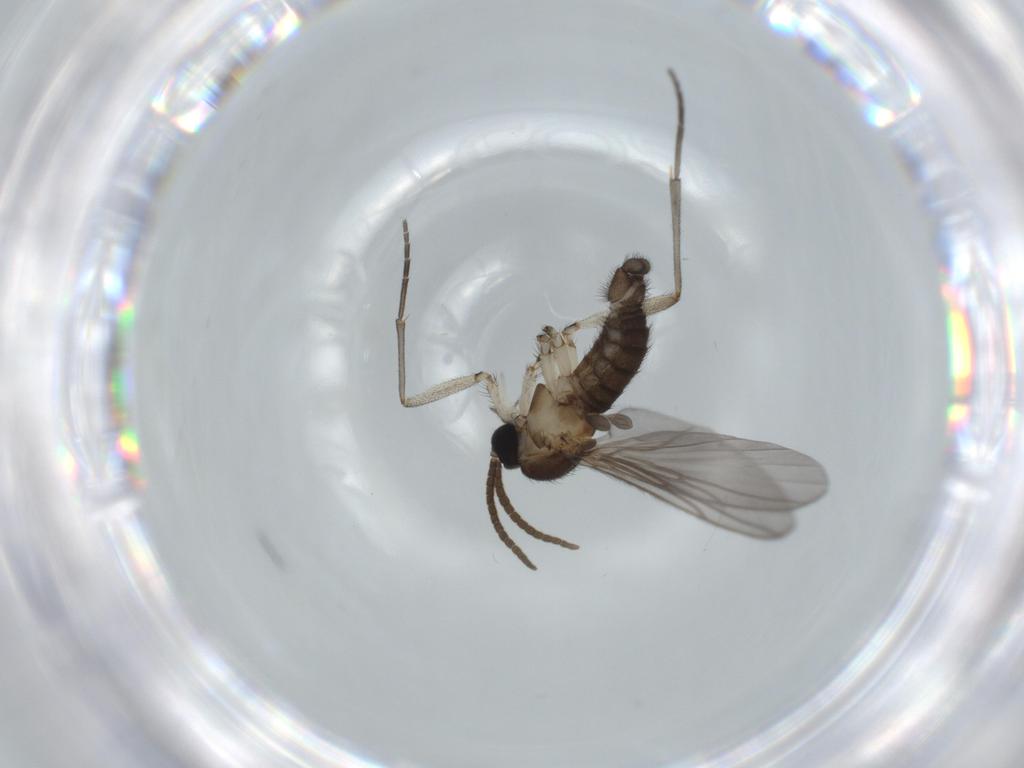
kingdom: Animalia
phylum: Arthropoda
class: Insecta
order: Diptera
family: Sciaridae
